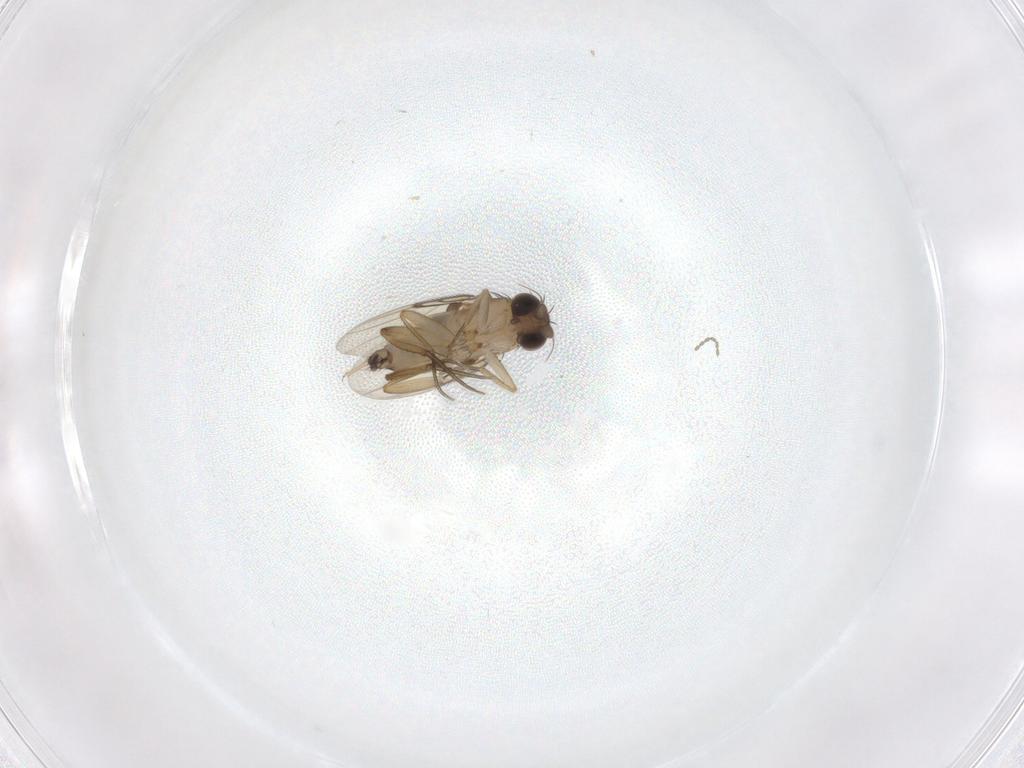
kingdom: Animalia
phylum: Arthropoda
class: Insecta
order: Diptera
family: Phoridae
